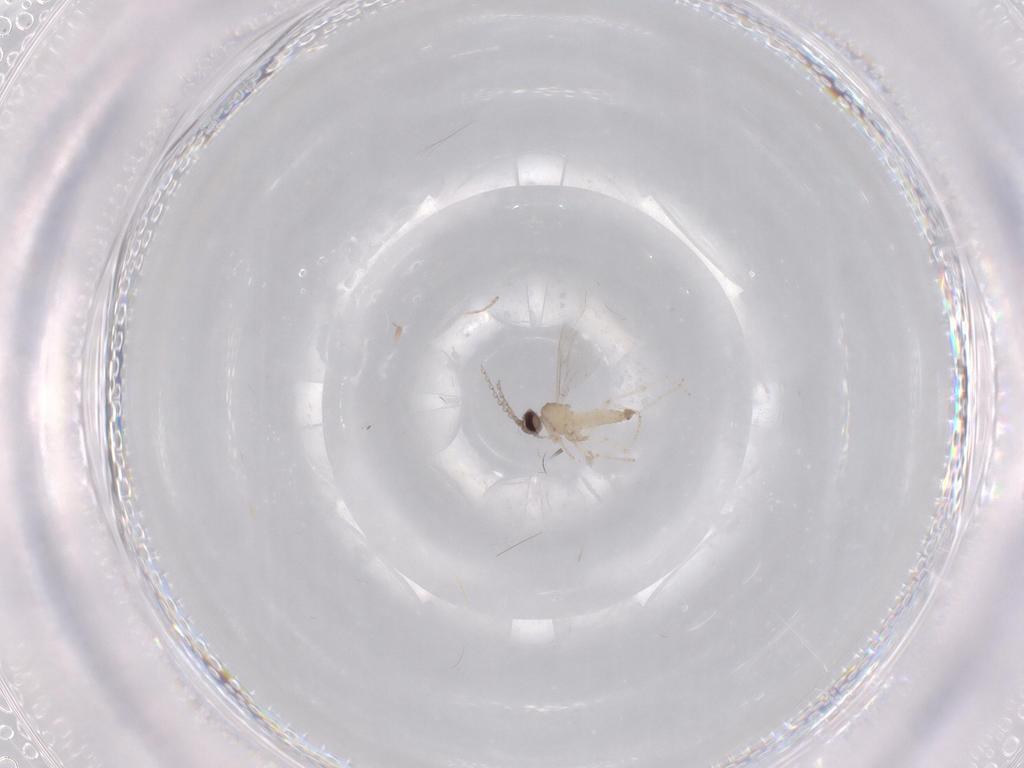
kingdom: Animalia
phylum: Arthropoda
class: Insecta
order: Diptera
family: Cecidomyiidae
